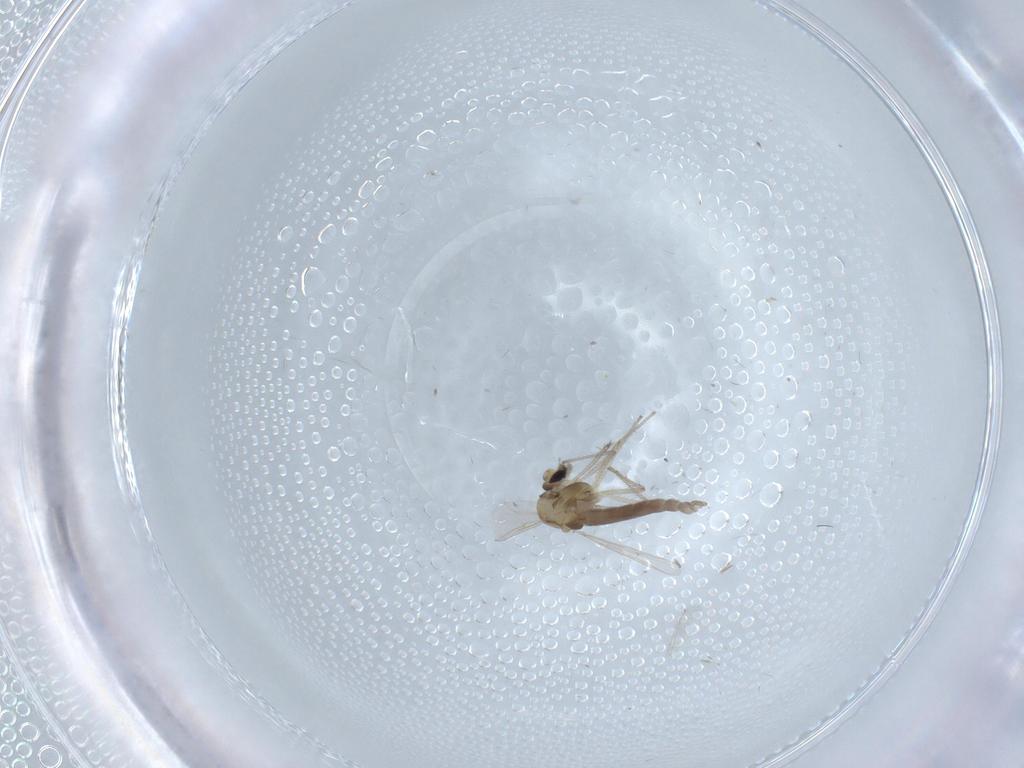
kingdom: Animalia
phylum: Arthropoda
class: Insecta
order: Diptera
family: Chironomidae
